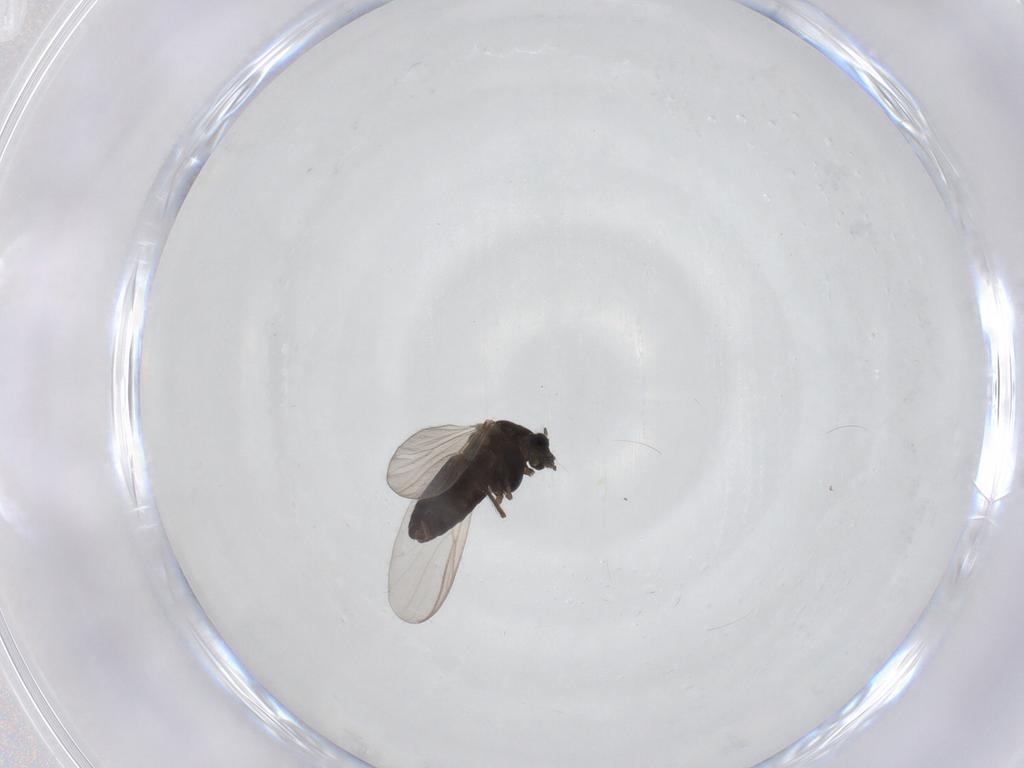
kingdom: Animalia
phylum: Arthropoda
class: Insecta
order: Diptera
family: Chironomidae
